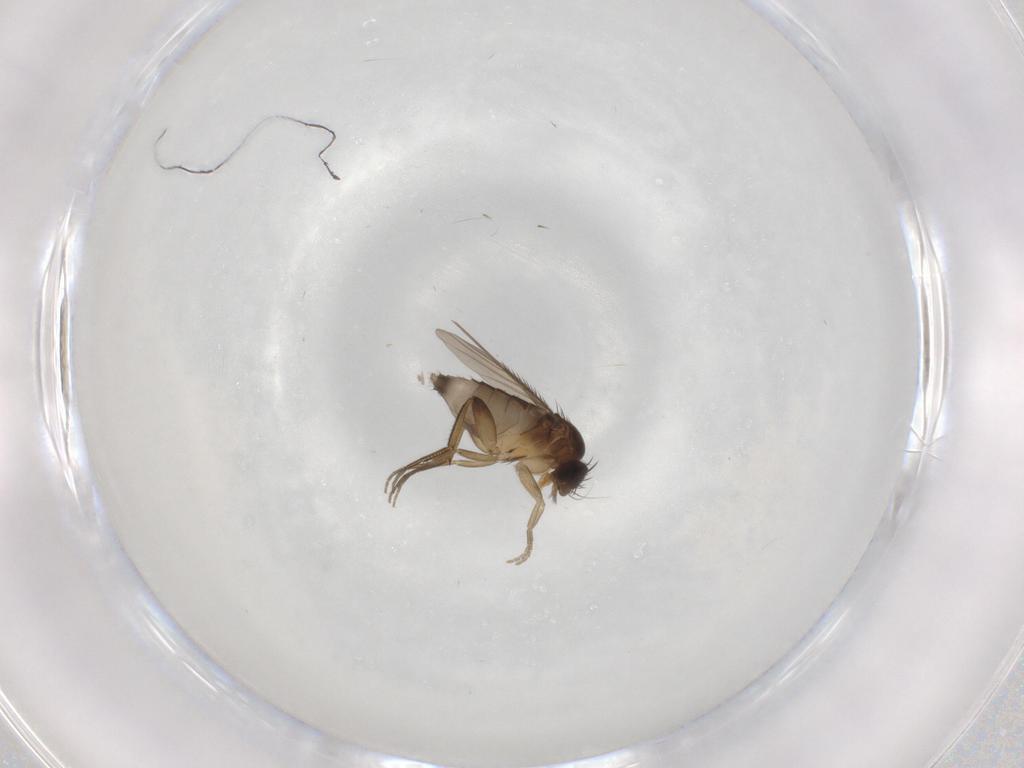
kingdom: Animalia
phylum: Arthropoda
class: Insecta
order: Diptera
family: Phoridae
